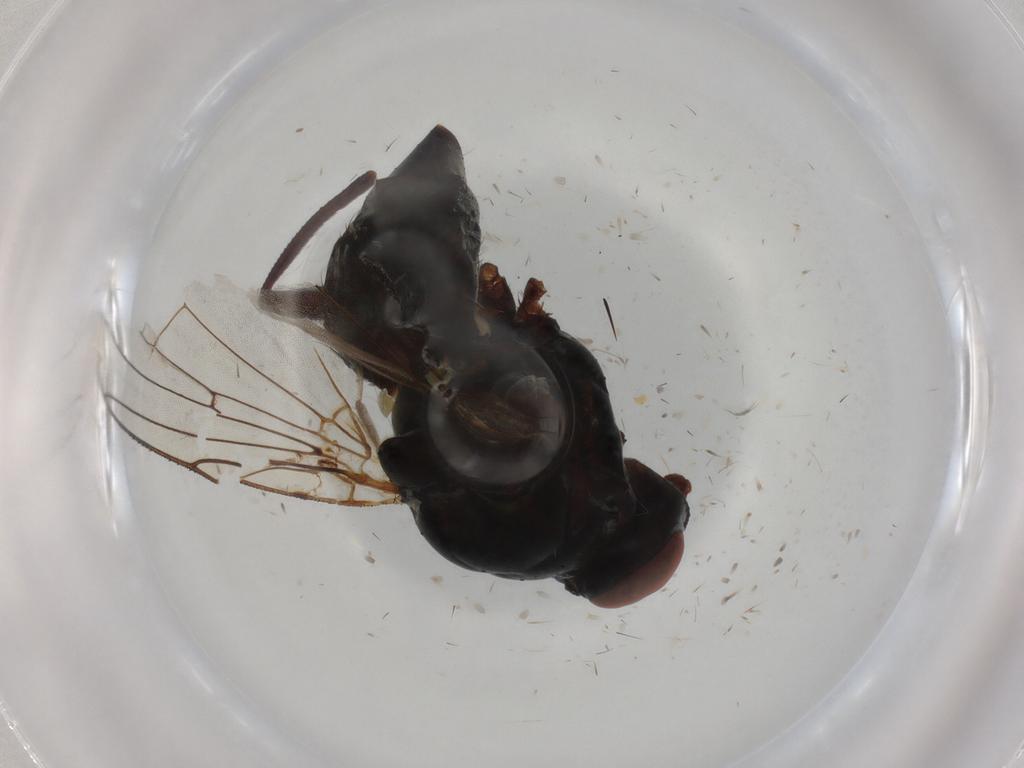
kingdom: Animalia
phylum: Arthropoda
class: Insecta
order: Diptera
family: Anthomyiidae
